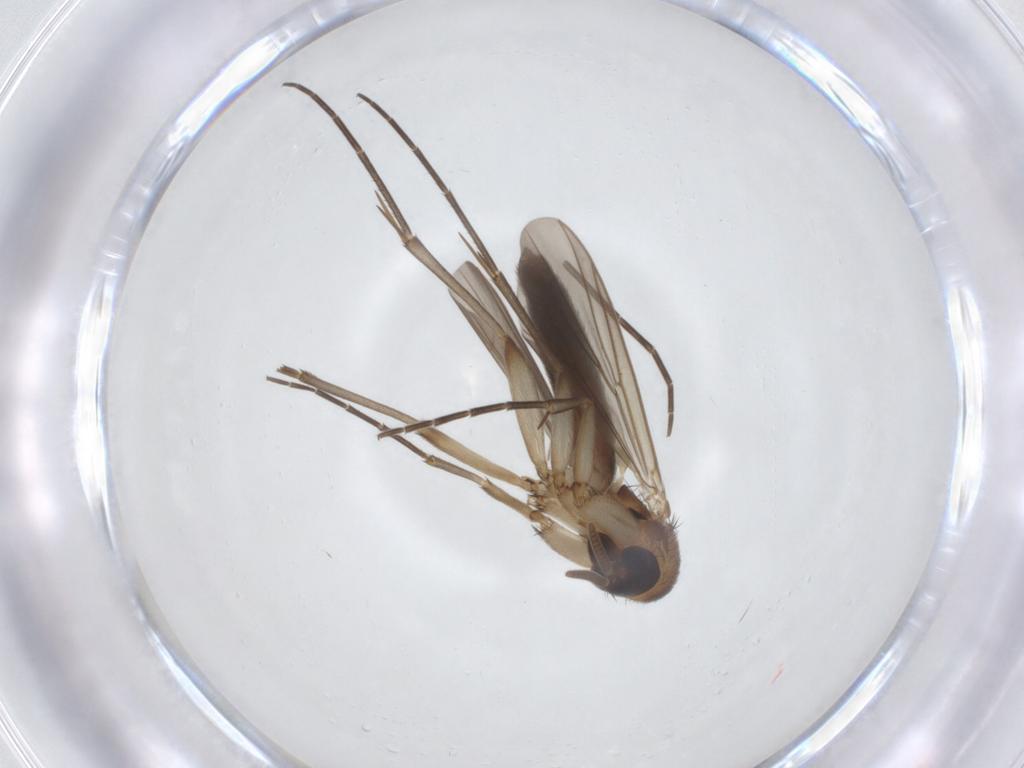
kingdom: Animalia
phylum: Arthropoda
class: Insecta
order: Diptera
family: Mycetophilidae
